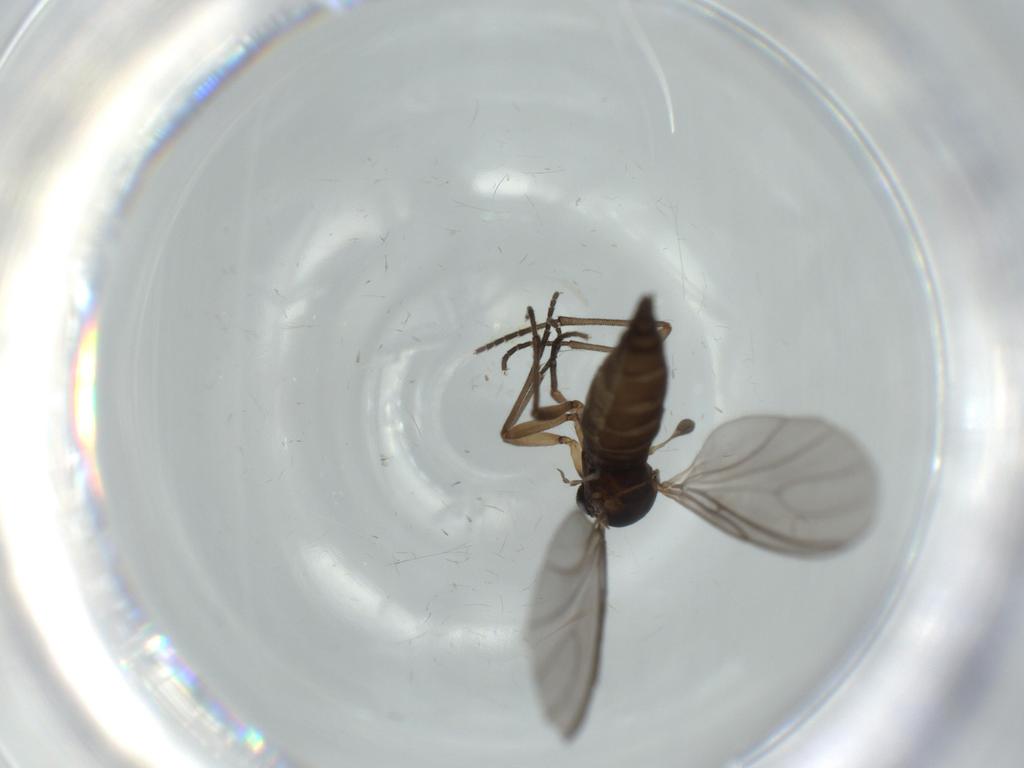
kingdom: Animalia
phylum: Arthropoda
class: Insecta
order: Diptera
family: Sciaridae
